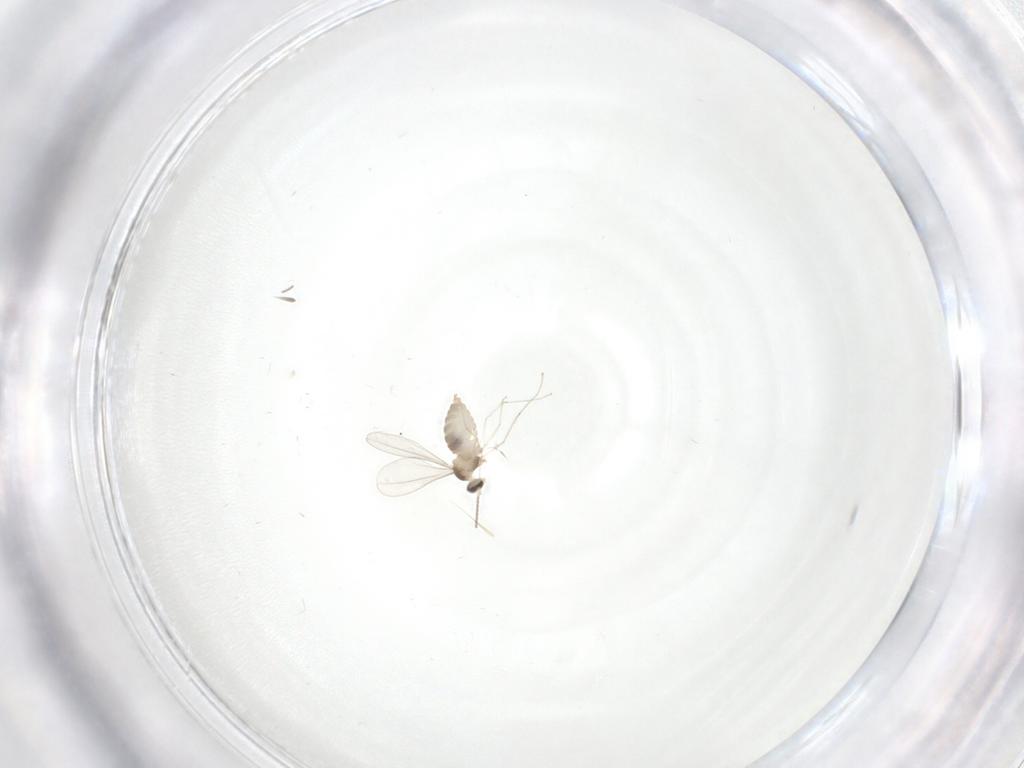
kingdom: Animalia
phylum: Arthropoda
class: Insecta
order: Diptera
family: Cecidomyiidae
